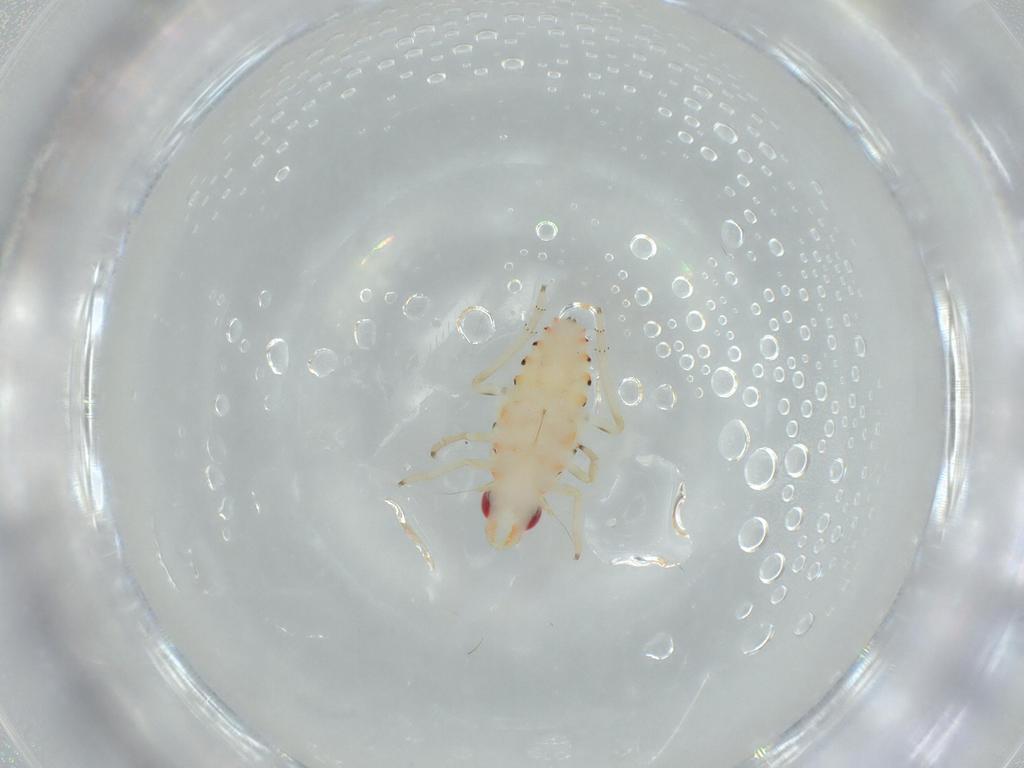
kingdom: Animalia
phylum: Arthropoda
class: Insecta
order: Hemiptera
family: Tropiduchidae
